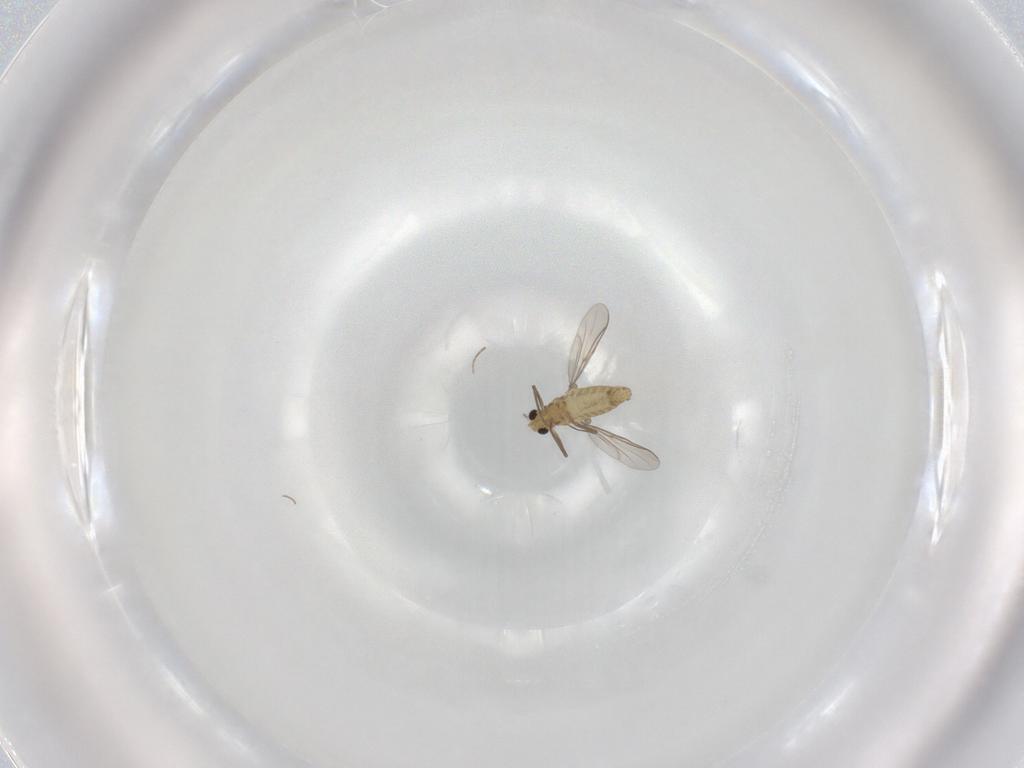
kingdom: Animalia
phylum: Arthropoda
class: Insecta
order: Diptera
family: Chironomidae
